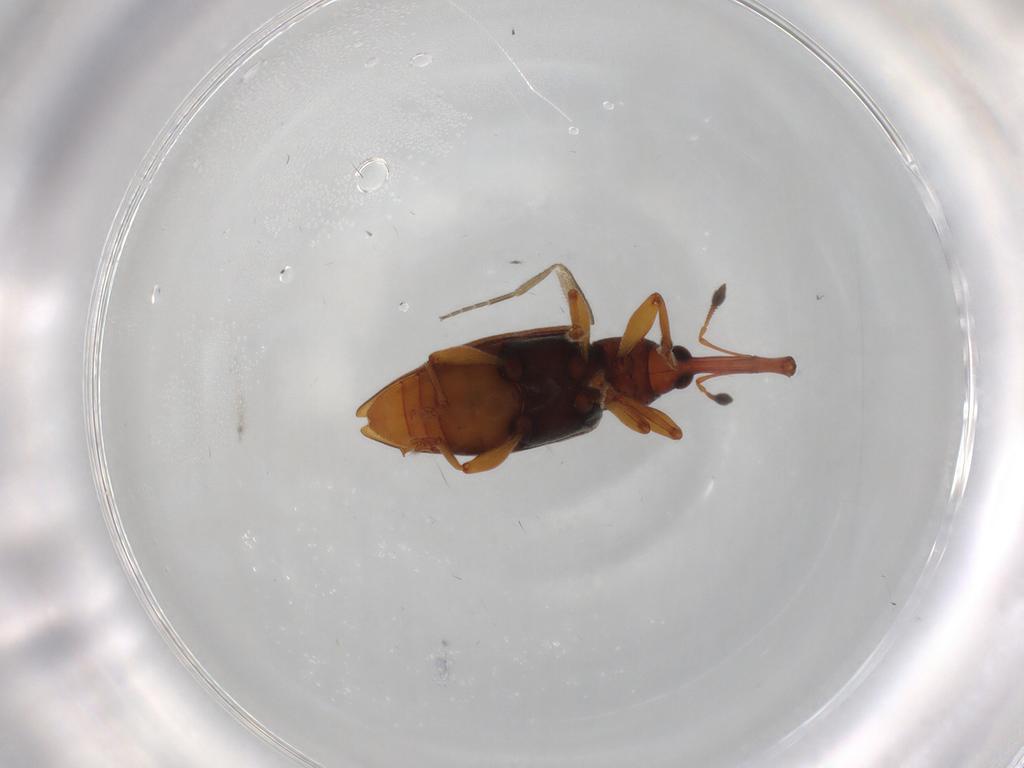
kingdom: Animalia
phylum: Arthropoda
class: Insecta
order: Coleoptera
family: Curculionidae
